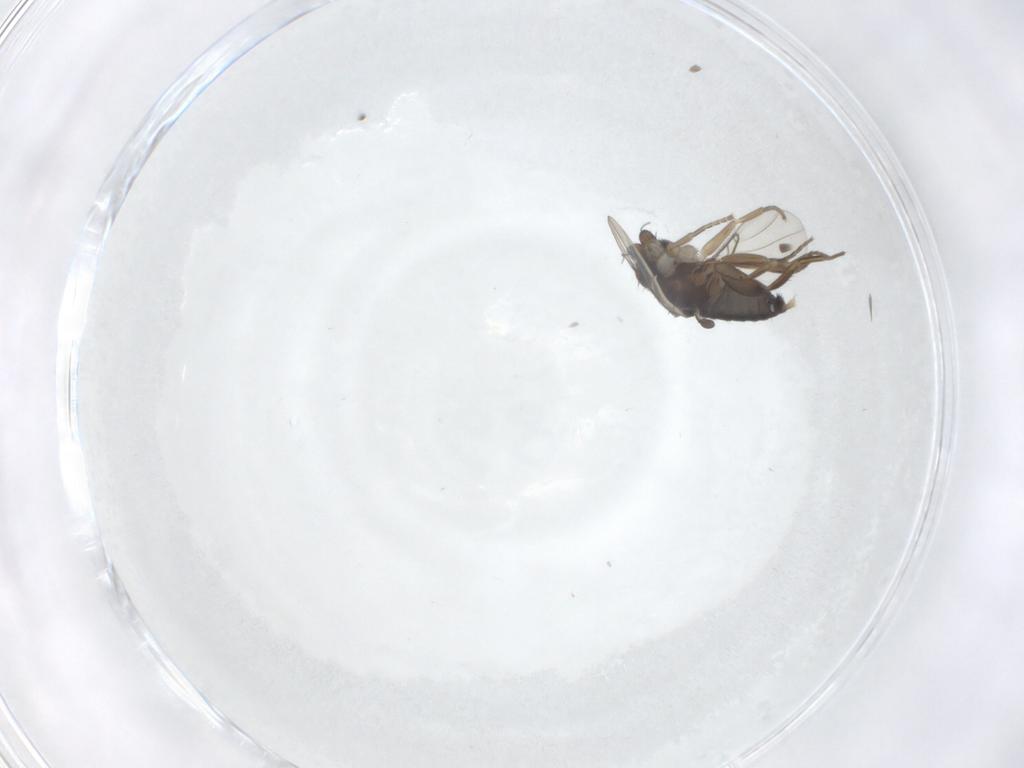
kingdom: Animalia
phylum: Arthropoda
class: Insecta
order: Diptera
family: Phoridae
